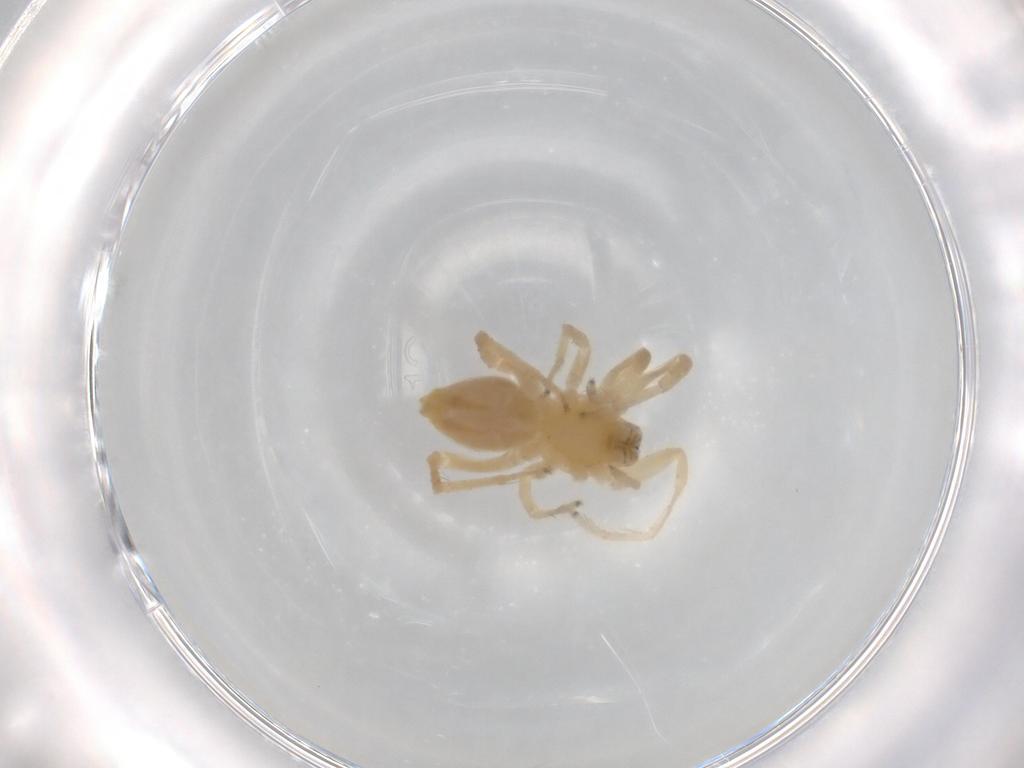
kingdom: Animalia
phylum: Arthropoda
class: Arachnida
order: Araneae
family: Anyphaenidae
